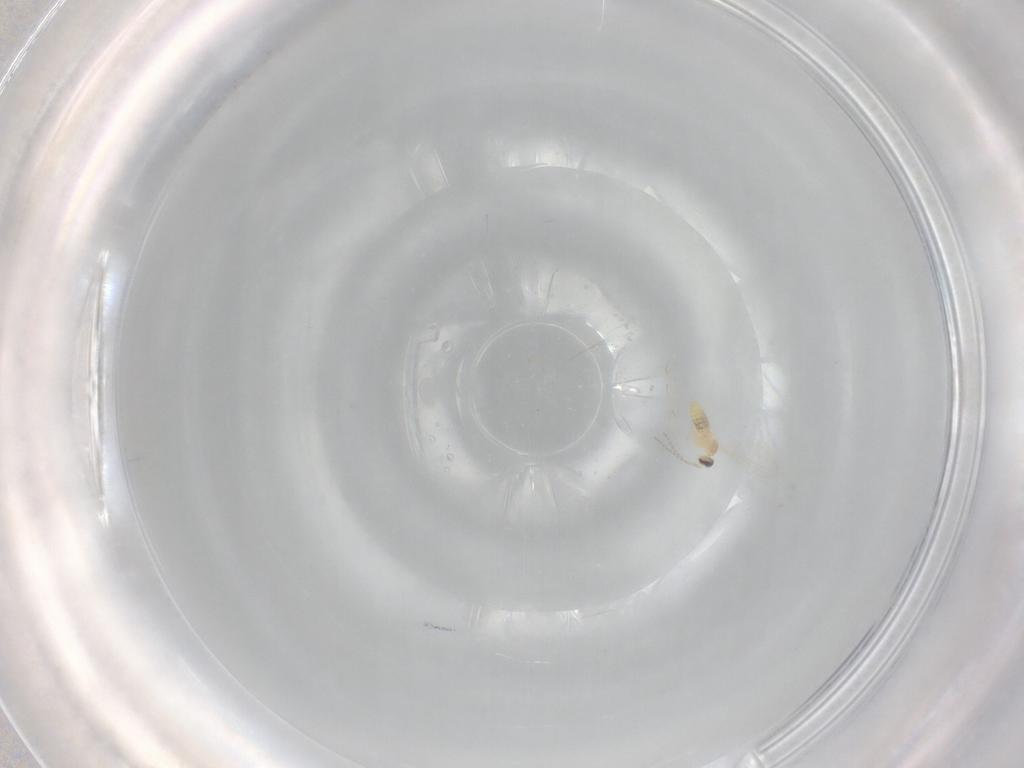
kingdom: Animalia
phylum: Arthropoda
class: Insecta
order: Diptera
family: Cecidomyiidae
